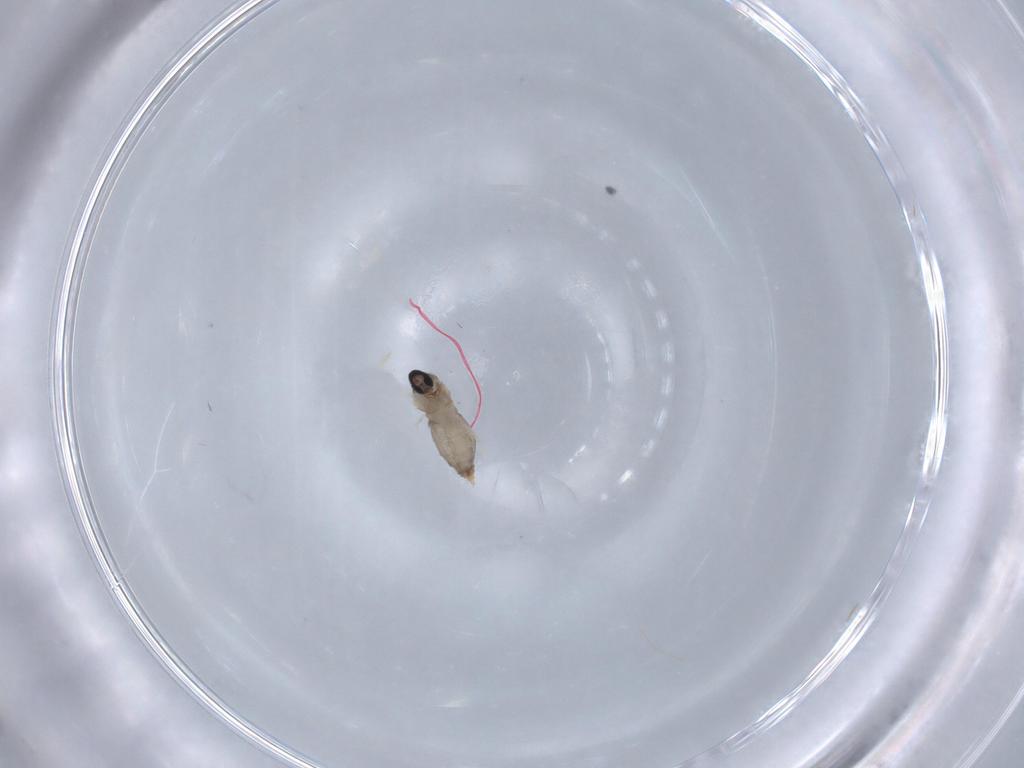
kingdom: Animalia
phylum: Arthropoda
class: Insecta
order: Diptera
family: Cecidomyiidae
